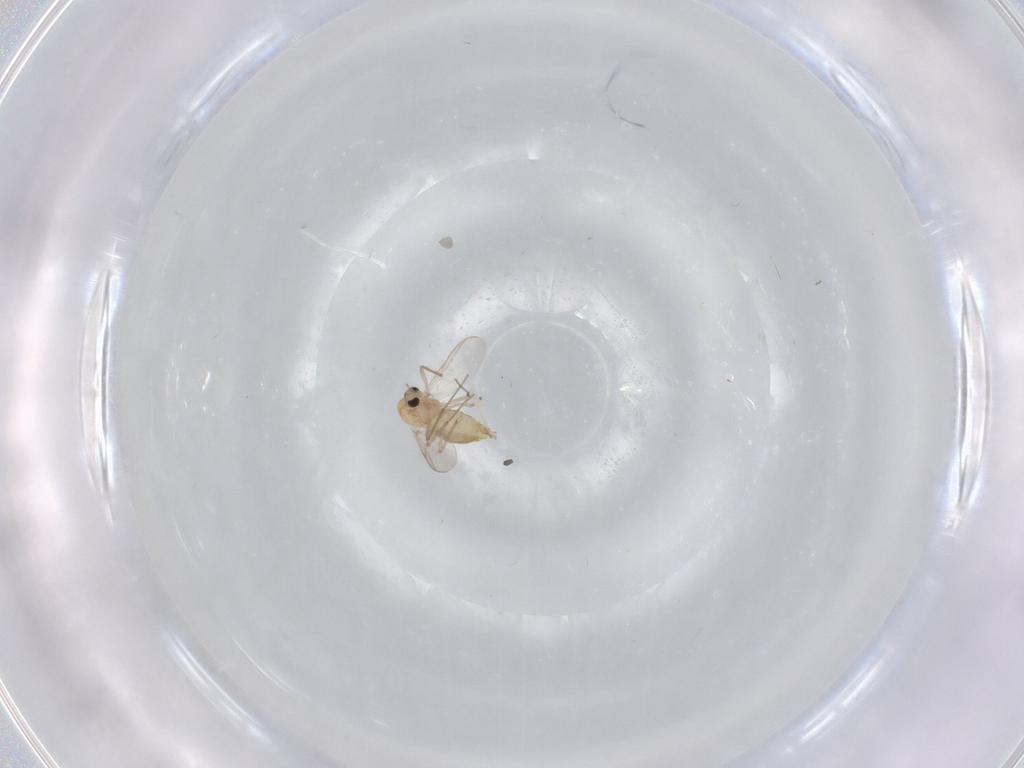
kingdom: Animalia
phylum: Arthropoda
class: Insecta
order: Diptera
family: Chironomidae
